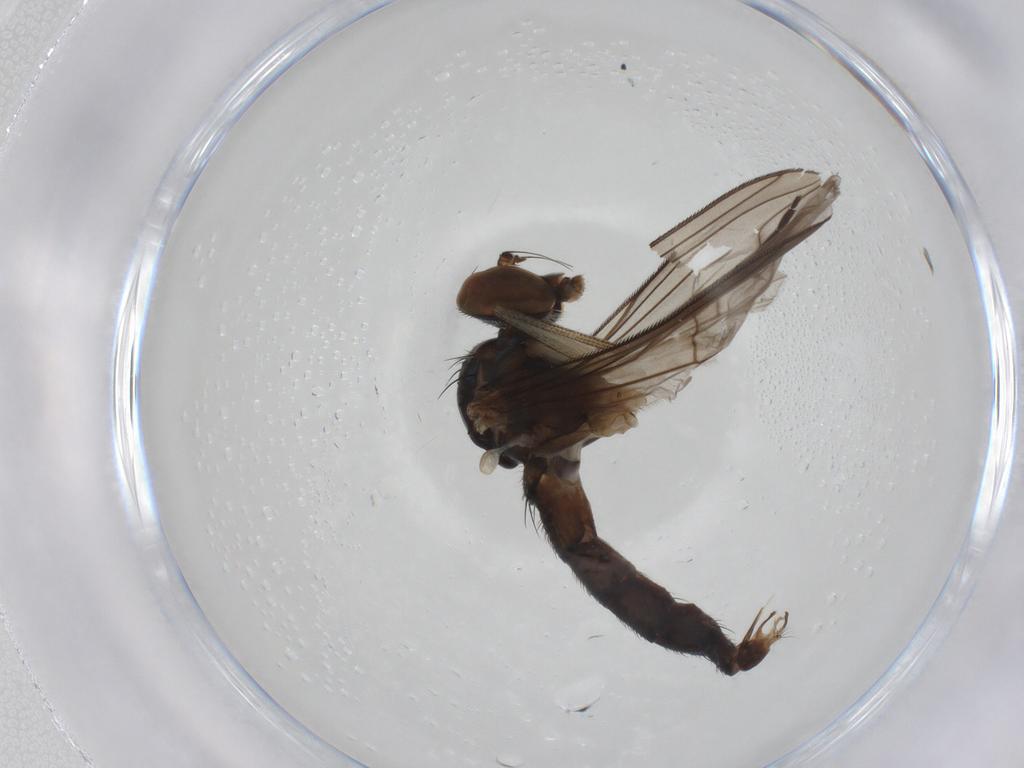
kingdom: Animalia
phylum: Arthropoda
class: Insecta
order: Diptera
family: Dolichopodidae
